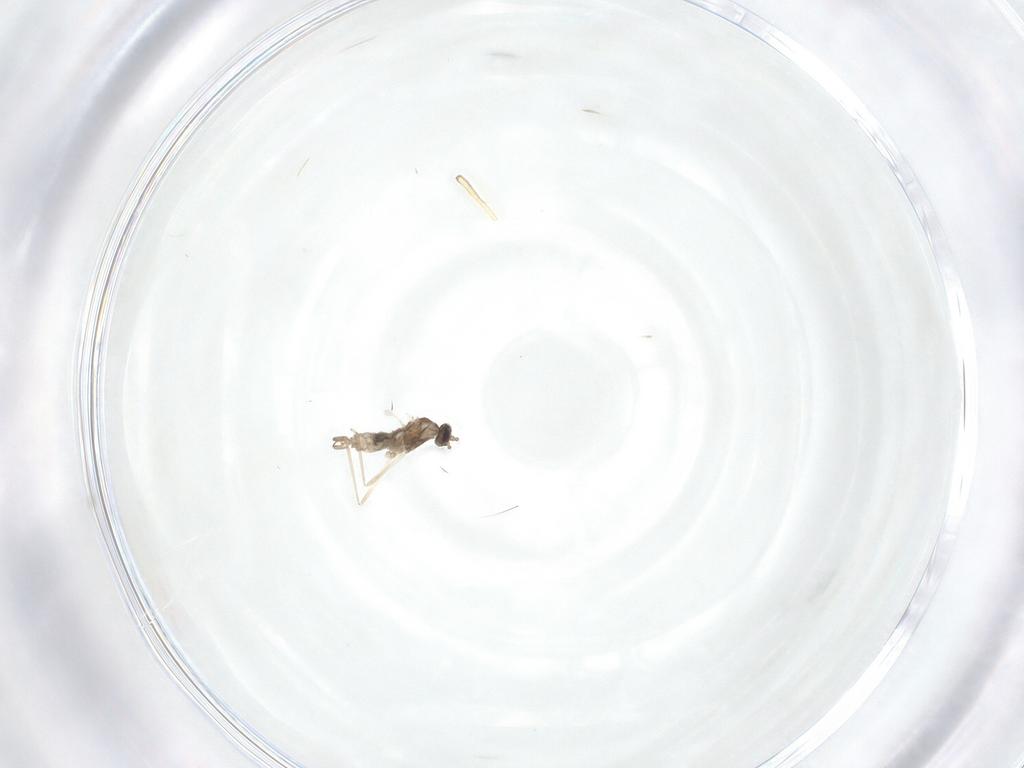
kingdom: Animalia
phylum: Arthropoda
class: Insecta
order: Diptera
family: Cecidomyiidae
